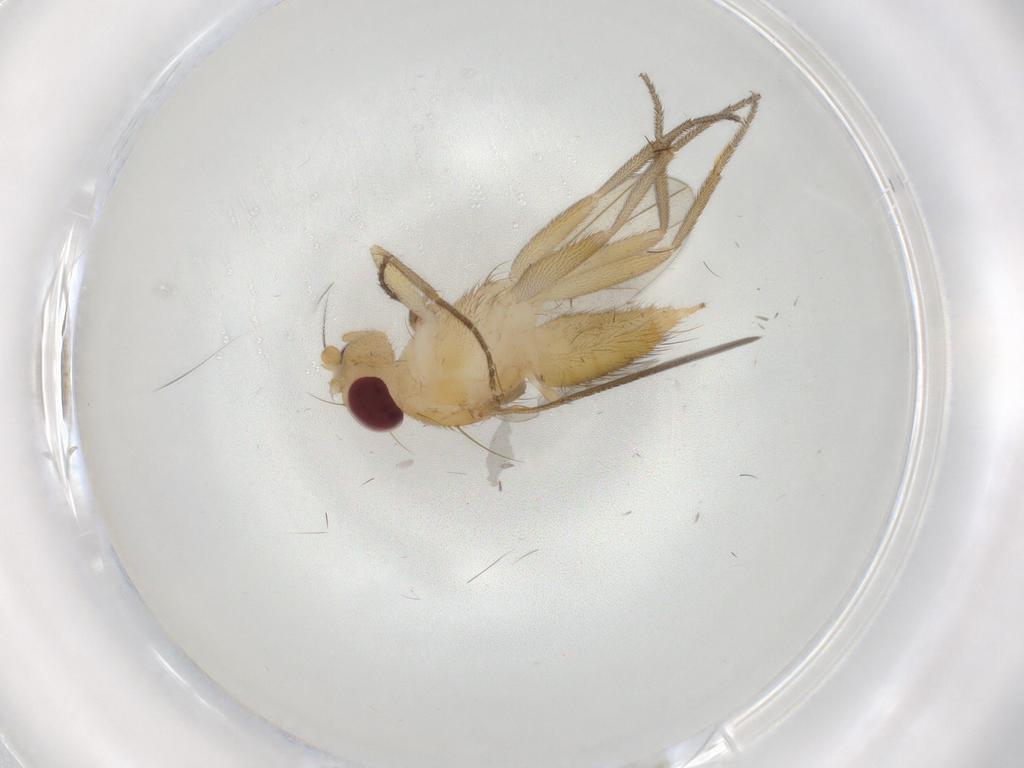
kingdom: Animalia
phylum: Arthropoda
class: Insecta
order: Diptera
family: Clusiidae
